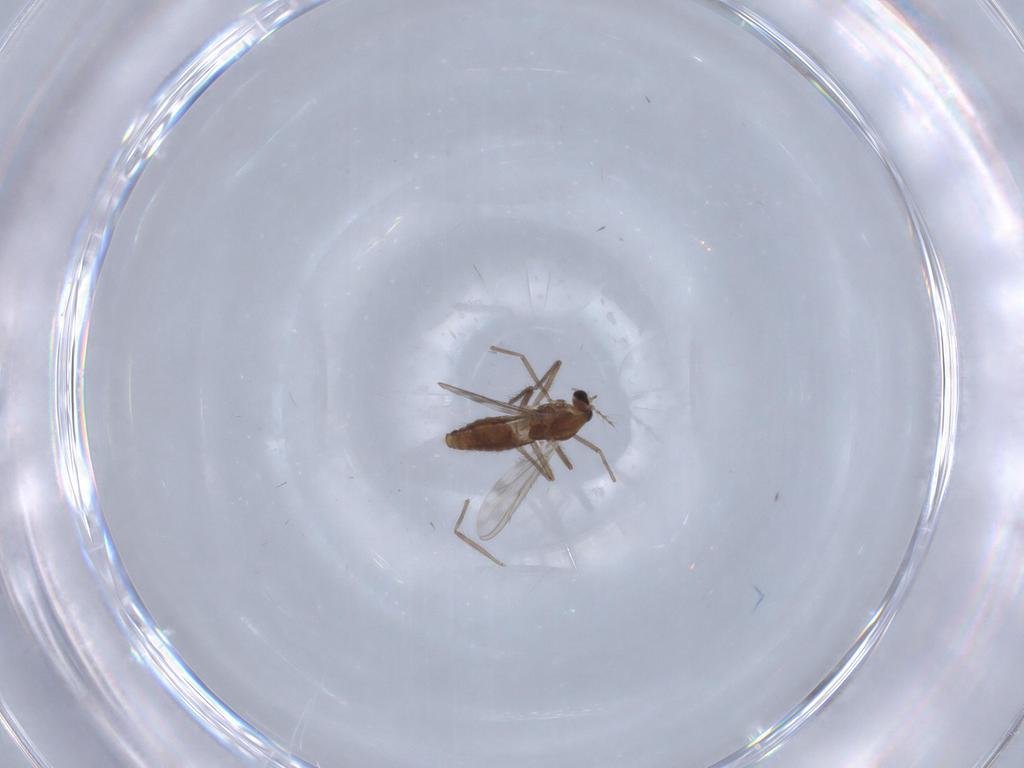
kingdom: Animalia
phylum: Arthropoda
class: Insecta
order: Diptera
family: Chironomidae
